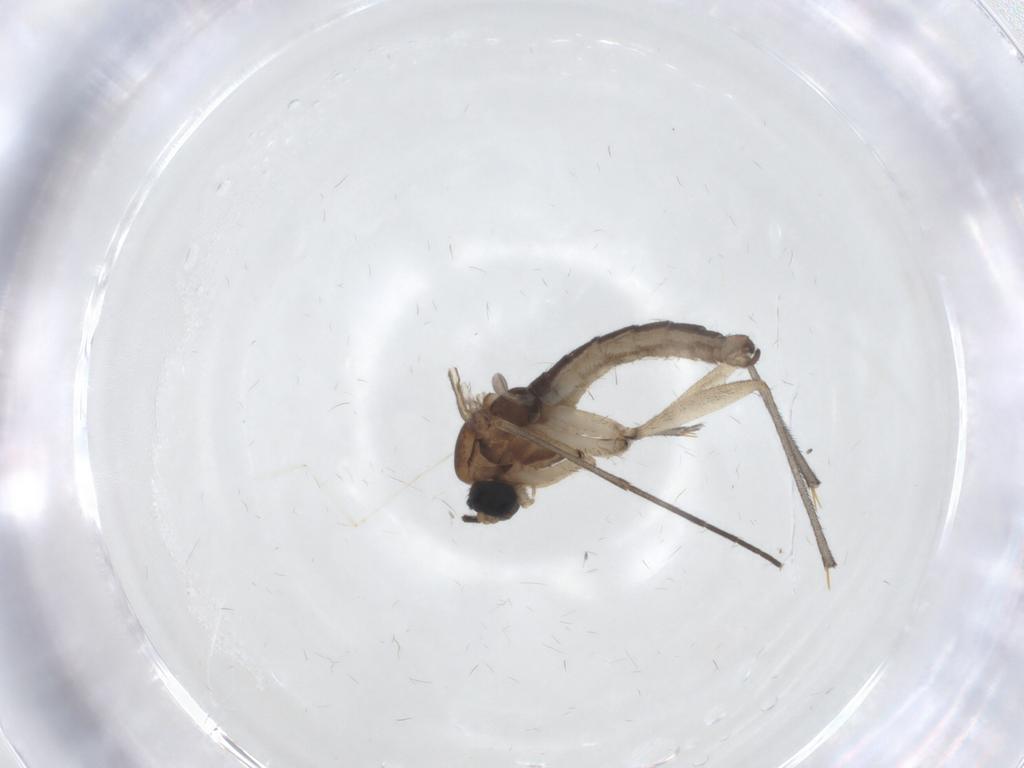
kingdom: Animalia
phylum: Arthropoda
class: Insecta
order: Diptera
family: Sciaridae
